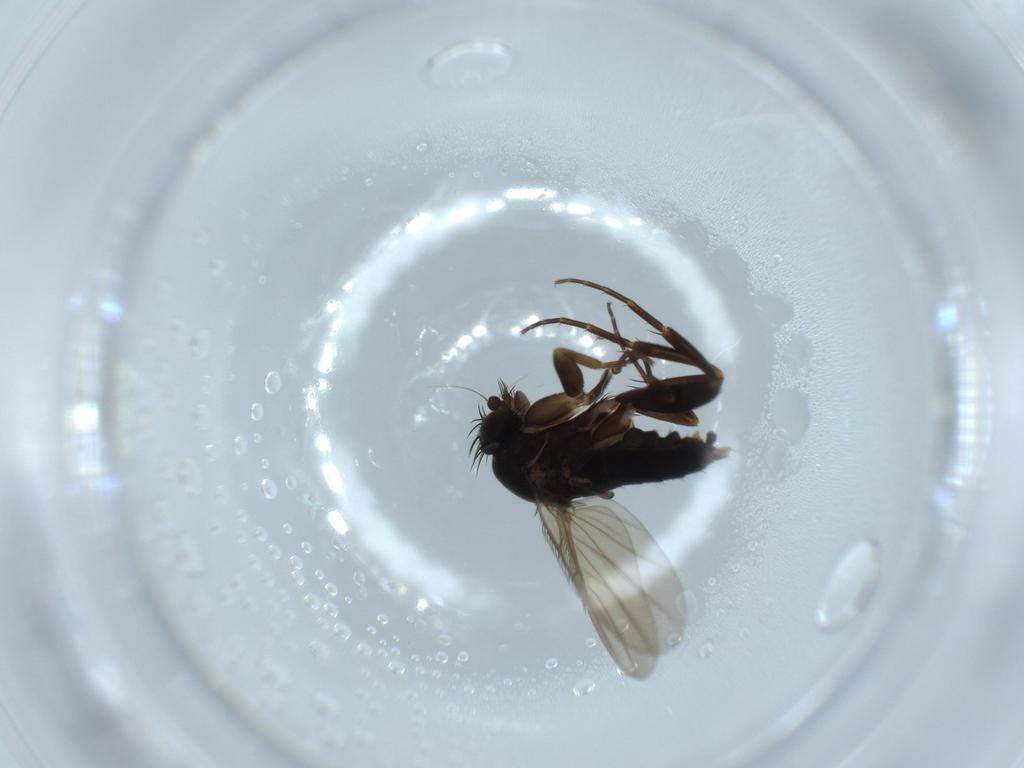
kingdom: Animalia
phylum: Arthropoda
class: Insecta
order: Diptera
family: Phoridae
